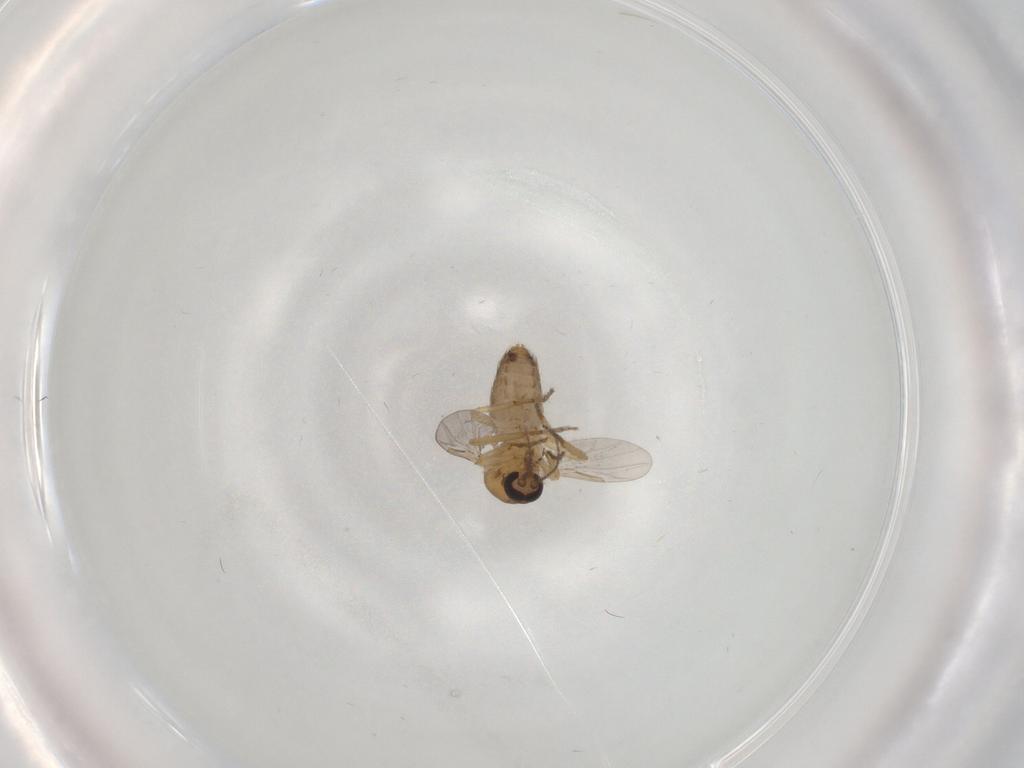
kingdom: Animalia
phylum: Arthropoda
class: Insecta
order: Diptera
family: Ceratopogonidae
